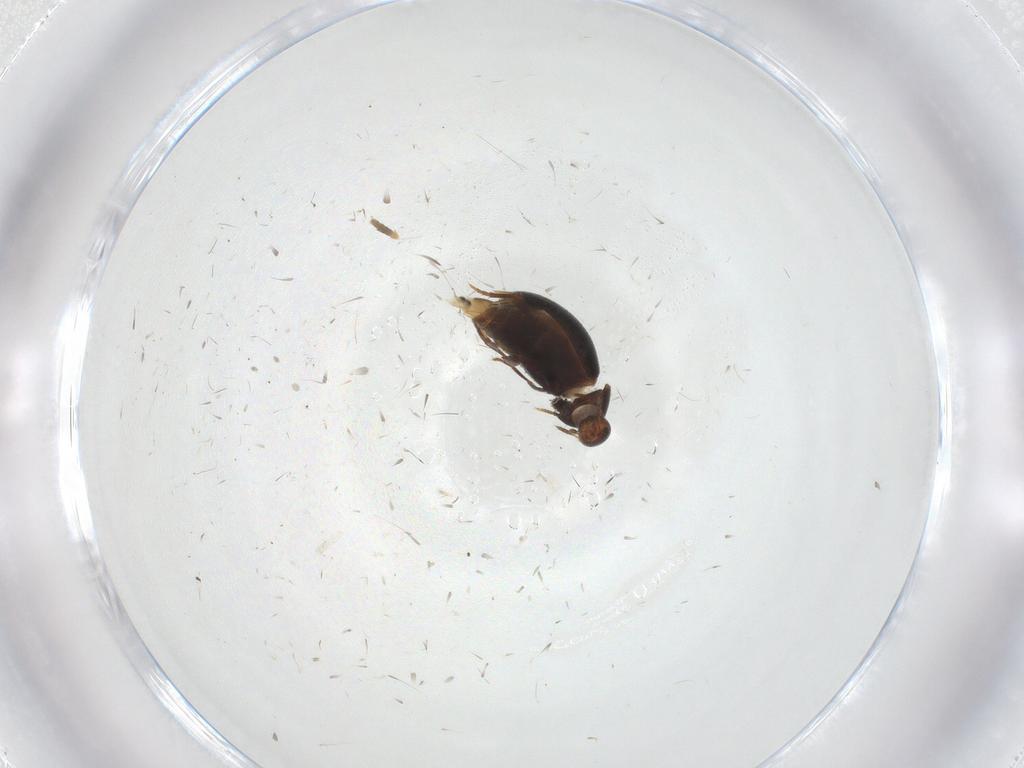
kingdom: Animalia
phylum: Arthropoda
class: Insecta
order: Coleoptera
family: Melandryidae
